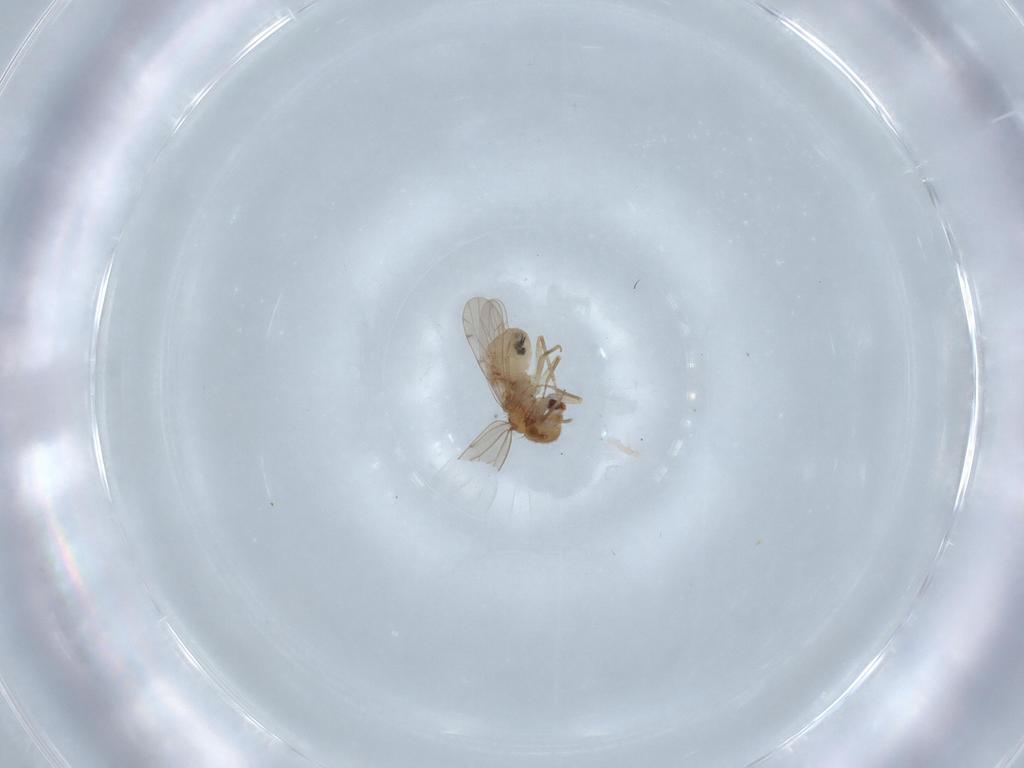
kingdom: Animalia
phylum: Arthropoda
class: Insecta
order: Psocodea
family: Ectopsocidae
